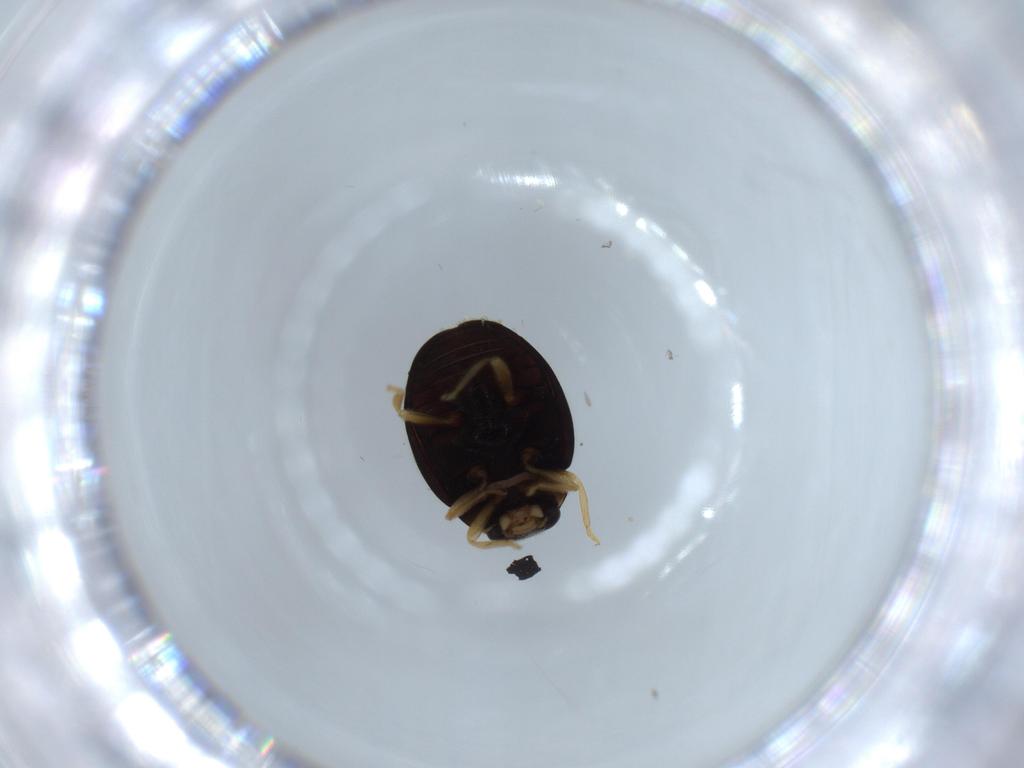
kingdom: Animalia
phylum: Arthropoda
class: Insecta
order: Coleoptera
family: Coccinellidae
